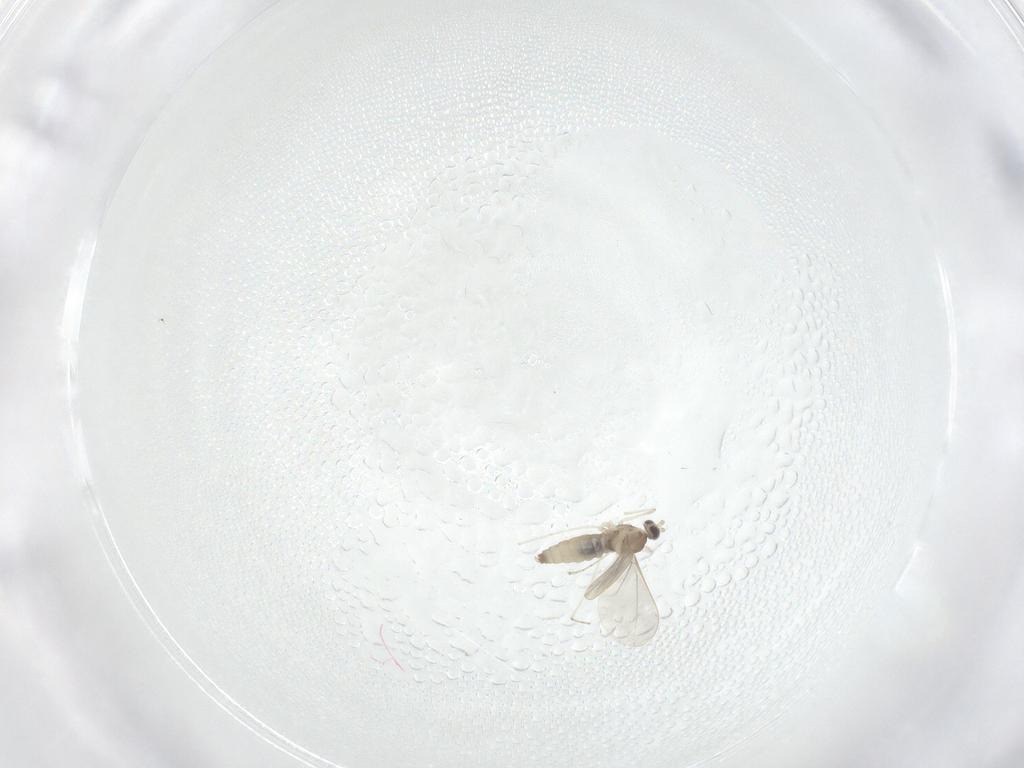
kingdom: Animalia
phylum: Arthropoda
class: Insecta
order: Diptera
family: Cecidomyiidae
